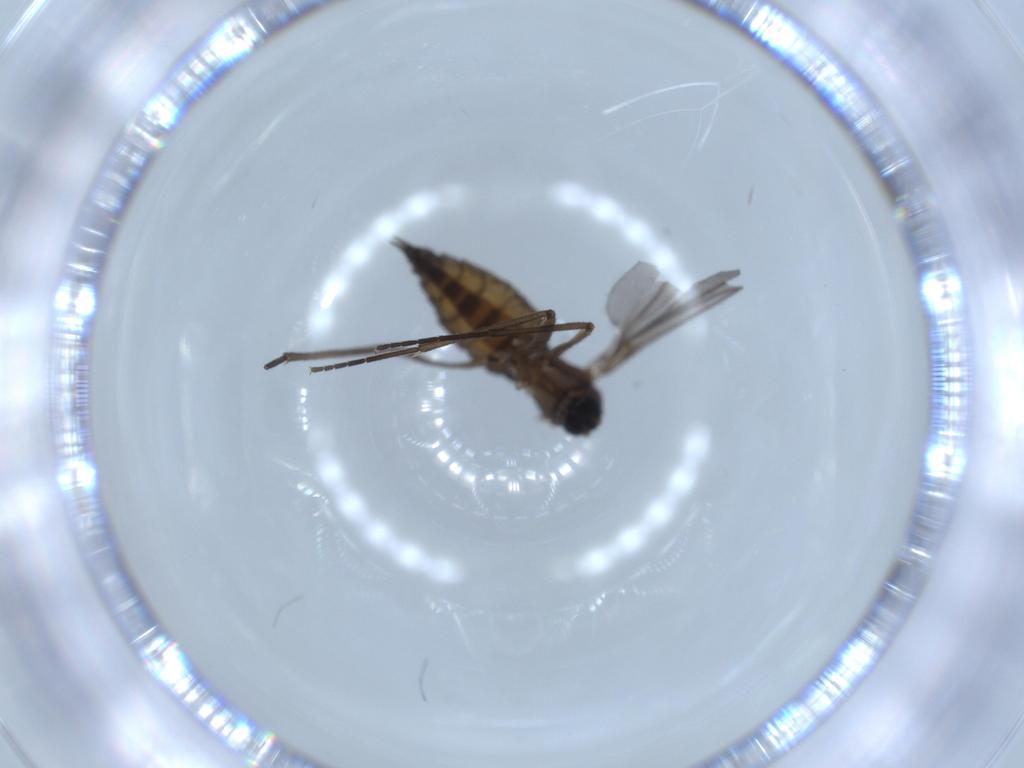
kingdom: Animalia
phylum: Arthropoda
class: Insecta
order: Diptera
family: Sciaridae
